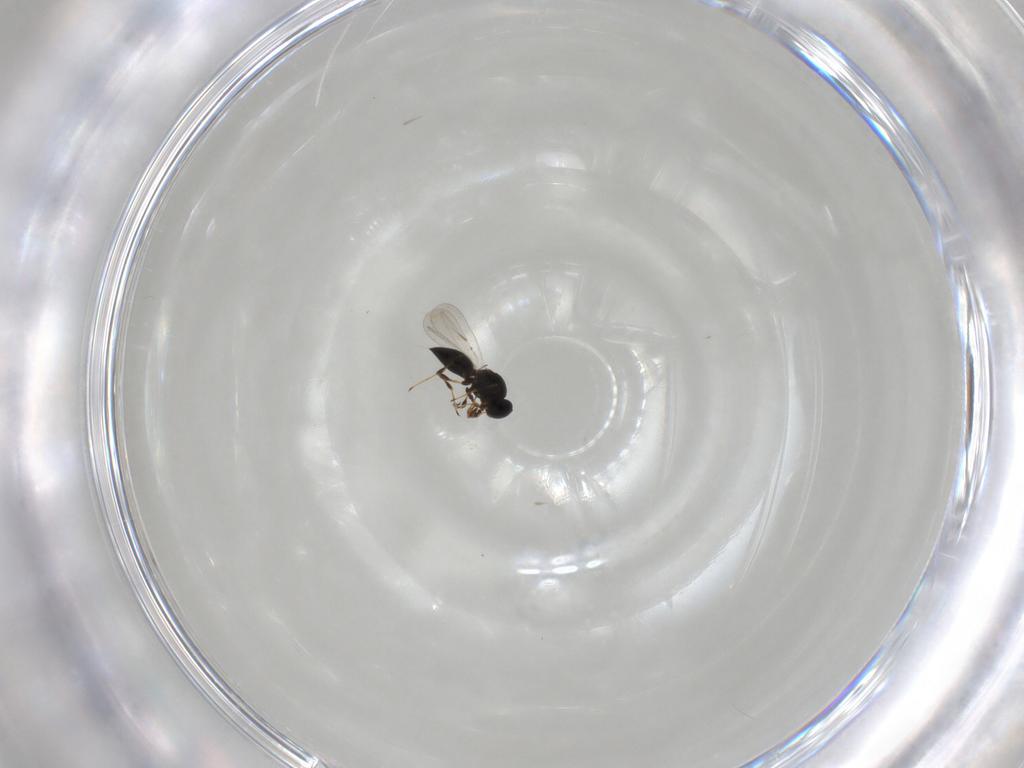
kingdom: Animalia
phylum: Arthropoda
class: Insecta
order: Hymenoptera
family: Platygastridae
